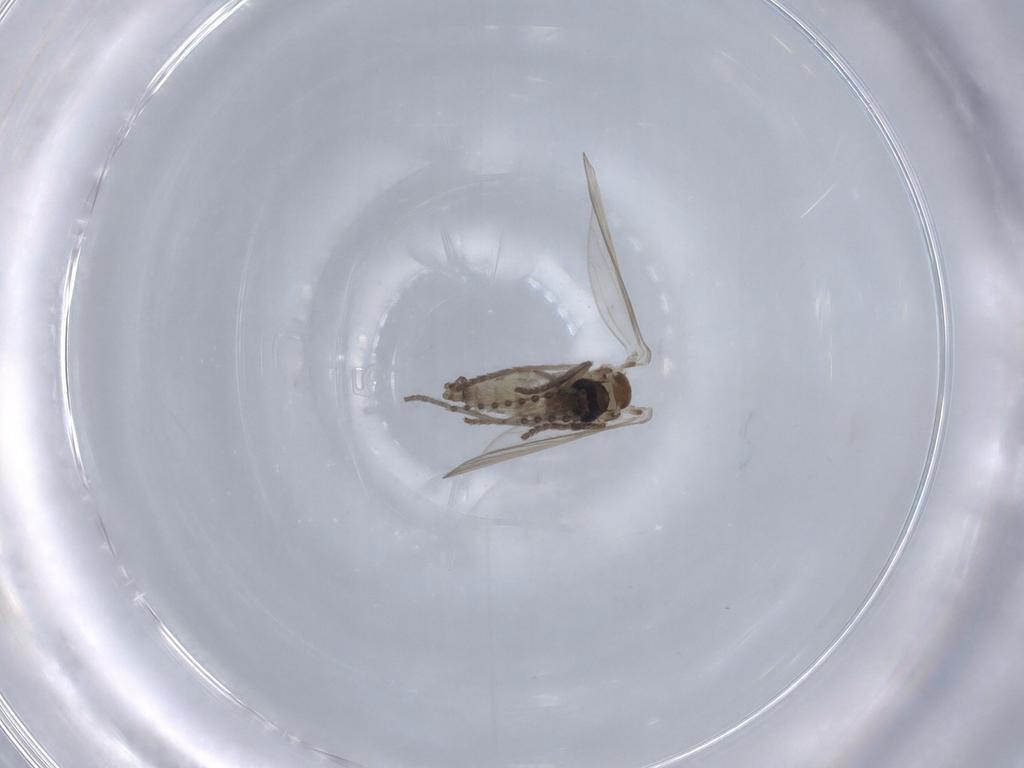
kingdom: Animalia
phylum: Arthropoda
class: Insecta
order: Diptera
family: Psychodidae
